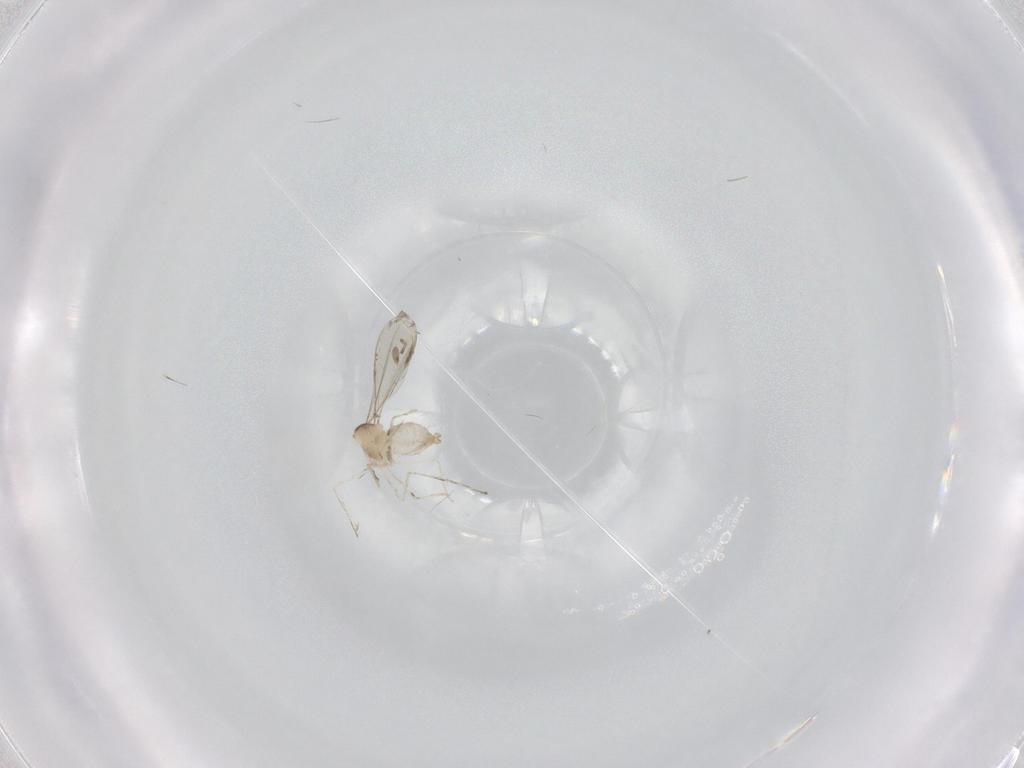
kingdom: Animalia
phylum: Arthropoda
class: Insecta
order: Diptera
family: Cecidomyiidae
